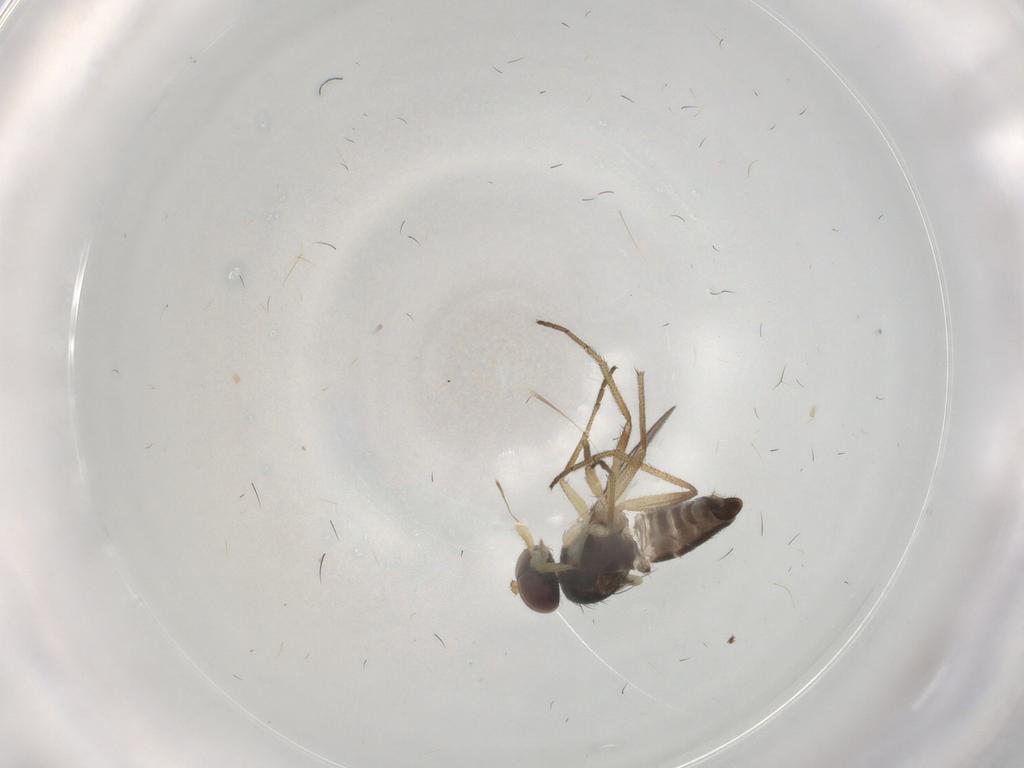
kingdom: Animalia
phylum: Arthropoda
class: Insecta
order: Diptera
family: Dolichopodidae
